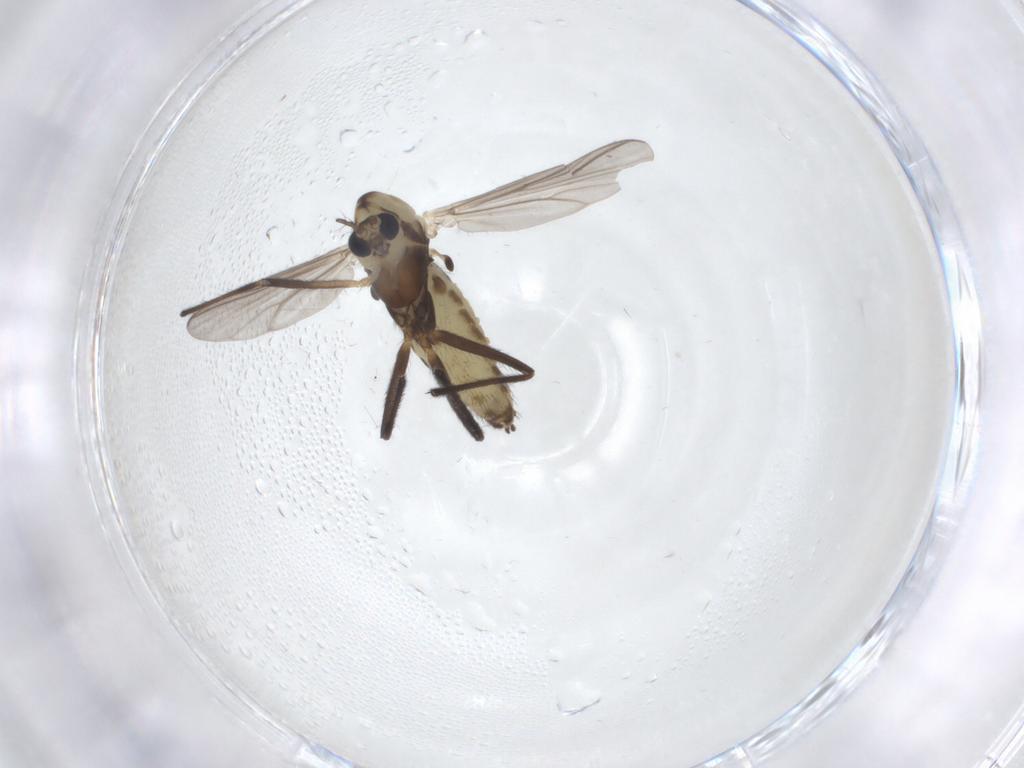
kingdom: Animalia
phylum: Arthropoda
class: Insecta
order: Diptera
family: Chironomidae
